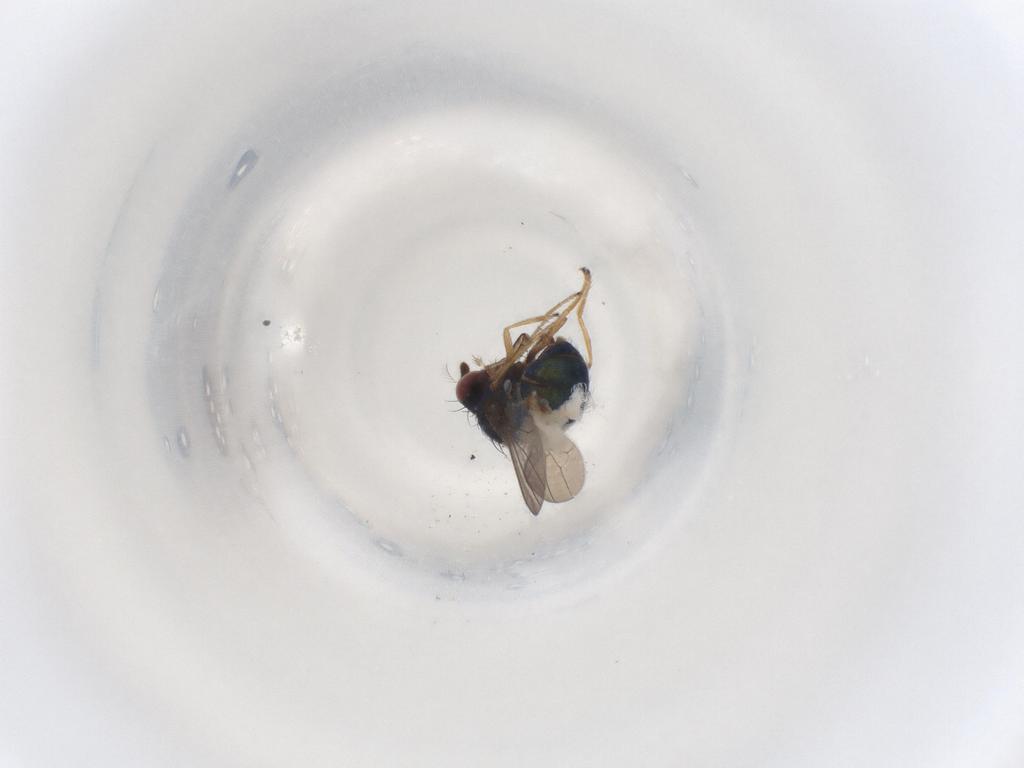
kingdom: Animalia
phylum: Arthropoda
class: Insecta
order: Diptera
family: Ephydridae
